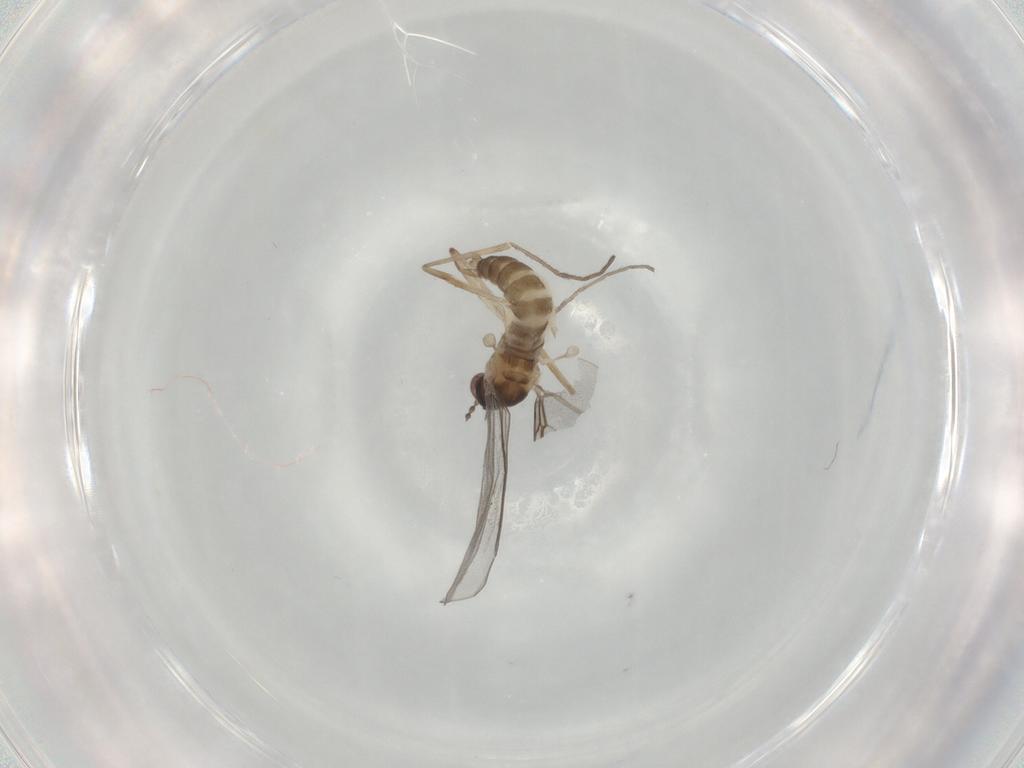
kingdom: Animalia
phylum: Arthropoda
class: Insecta
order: Diptera
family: Cecidomyiidae
